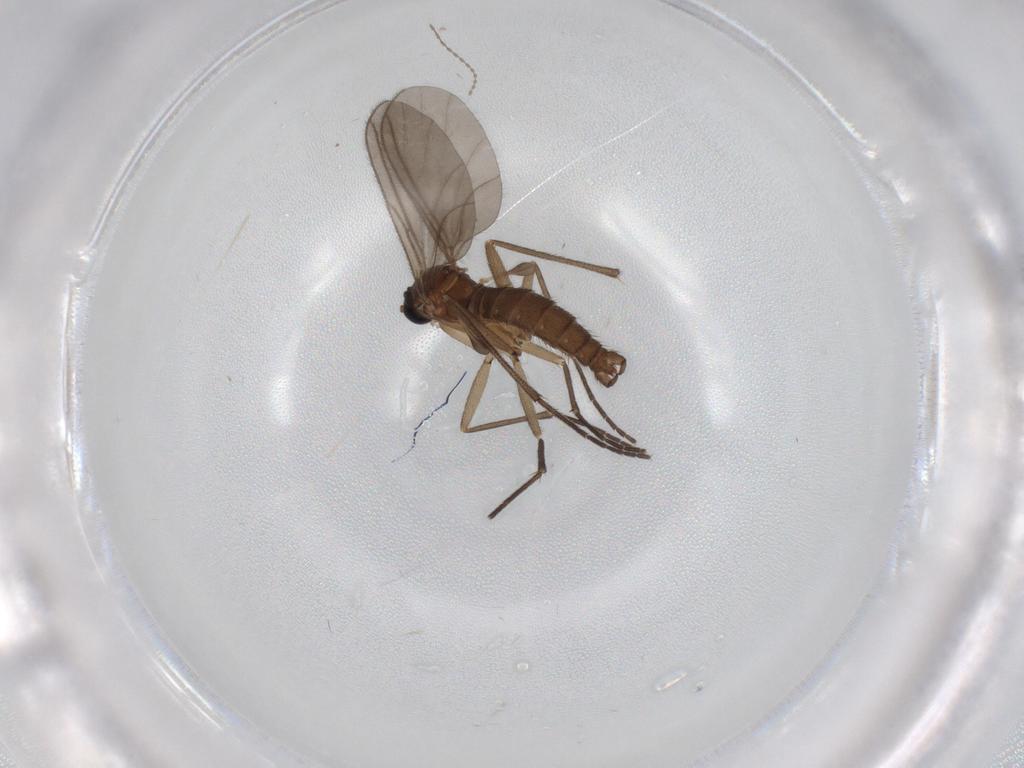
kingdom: Animalia
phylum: Arthropoda
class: Insecta
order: Diptera
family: Sciaridae
